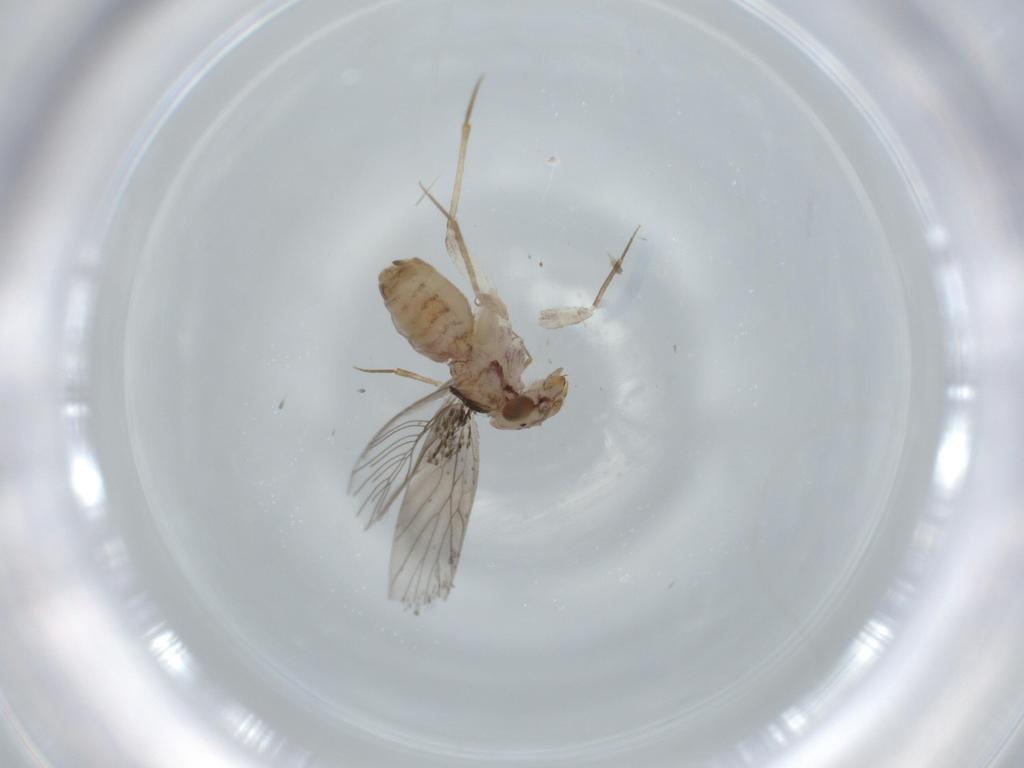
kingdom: Animalia
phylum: Arthropoda
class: Insecta
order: Psocodea
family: Lepidopsocidae
